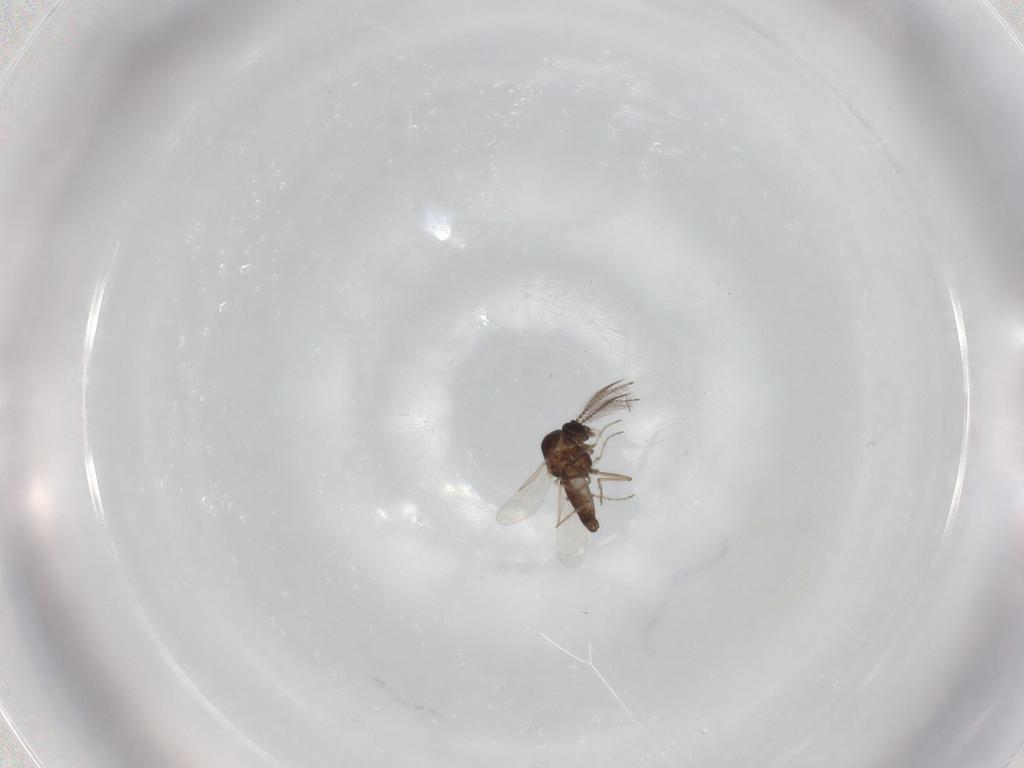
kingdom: Animalia
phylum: Arthropoda
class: Insecta
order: Diptera
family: Ceratopogonidae
